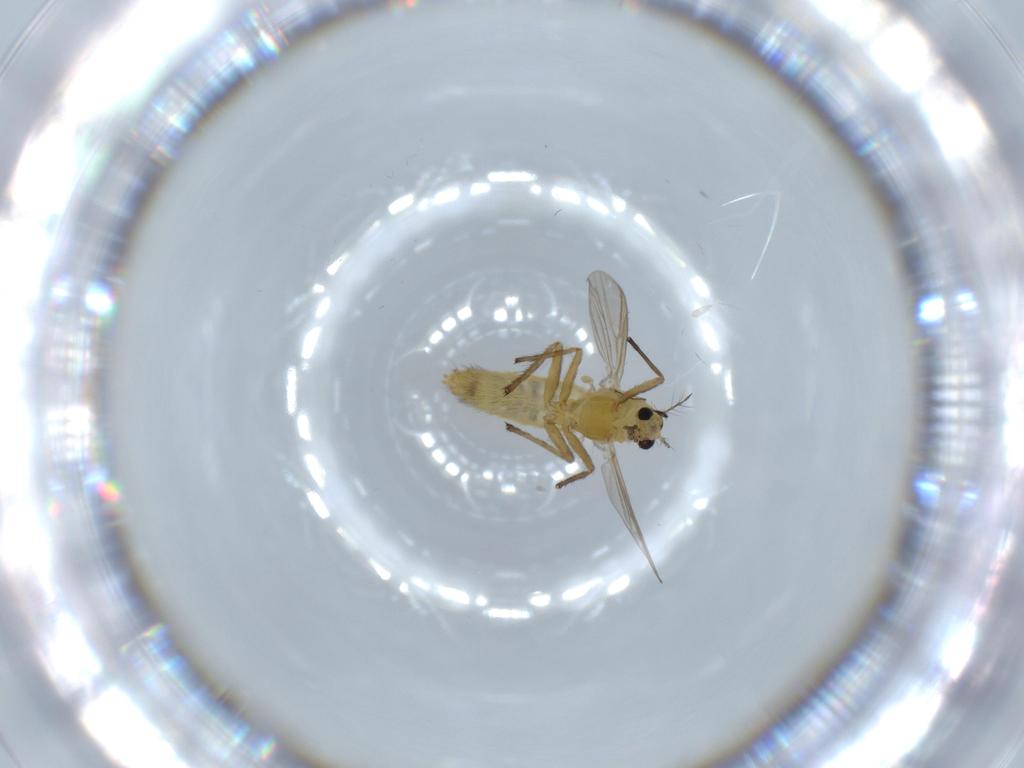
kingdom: Animalia
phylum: Arthropoda
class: Insecta
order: Diptera
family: Chironomidae
